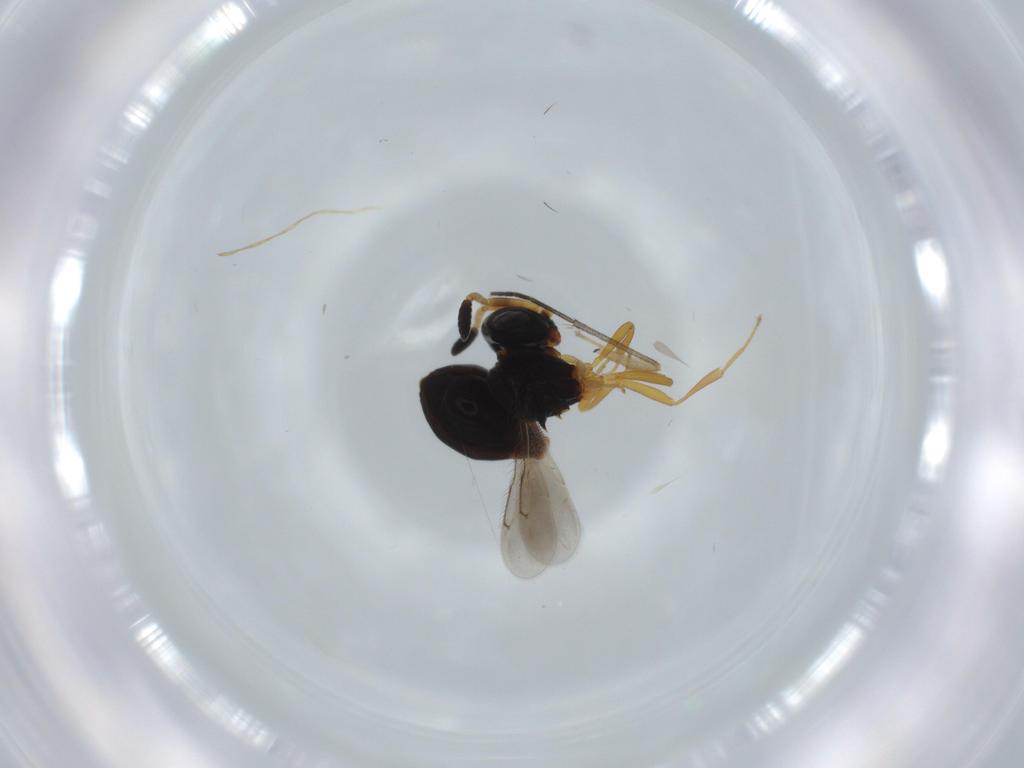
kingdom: Animalia
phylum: Arthropoda
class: Insecta
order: Hymenoptera
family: Scelionidae
